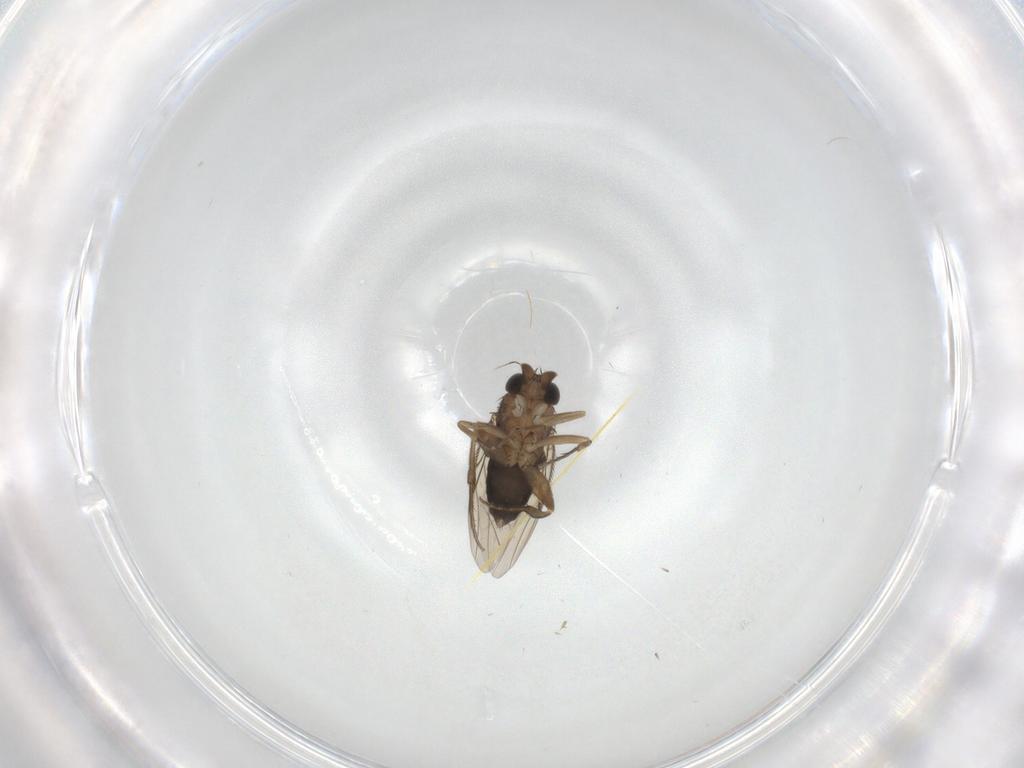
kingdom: Animalia
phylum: Arthropoda
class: Insecta
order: Diptera
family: Phoridae
